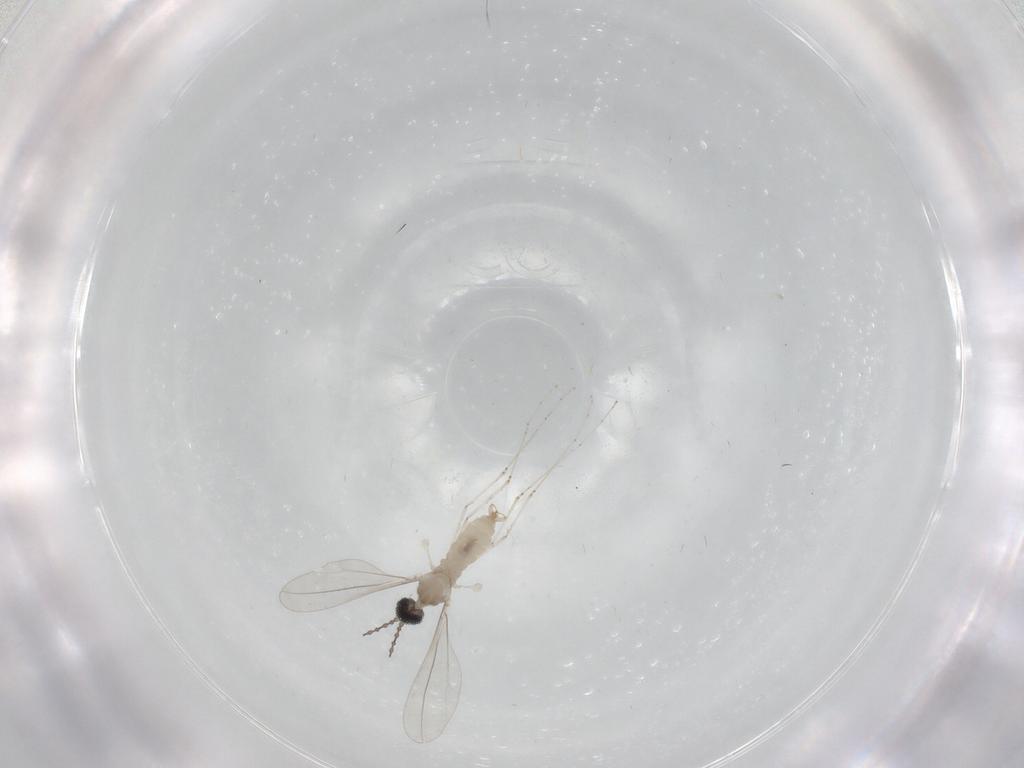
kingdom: Animalia
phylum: Arthropoda
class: Insecta
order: Diptera
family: Cecidomyiidae
